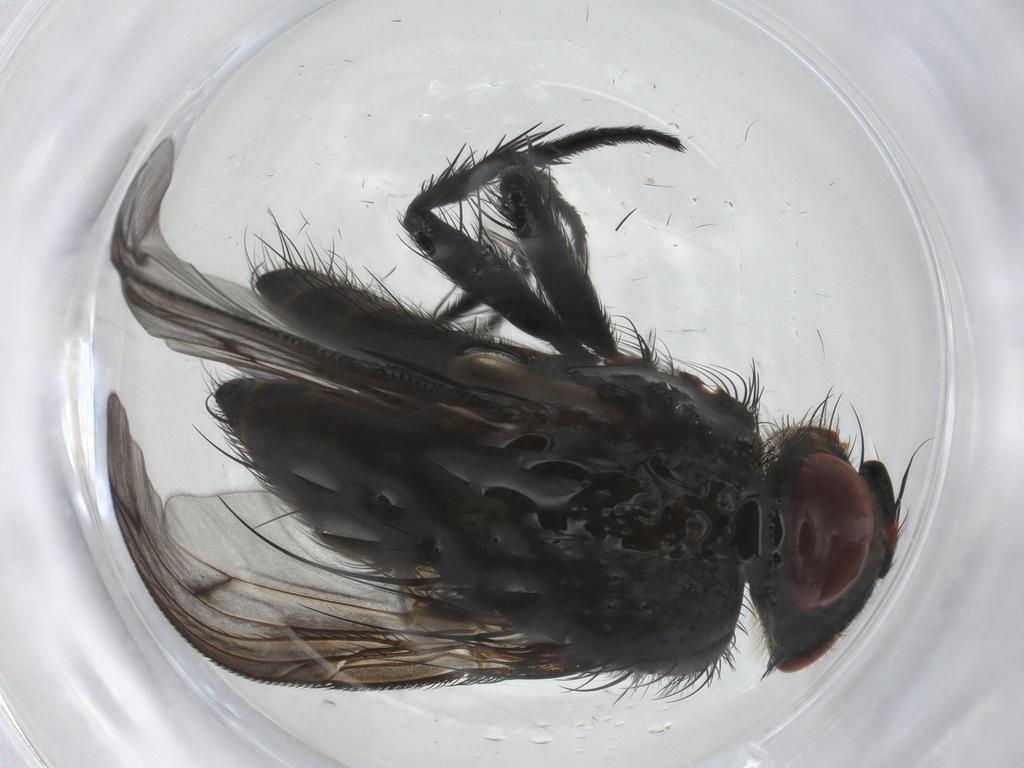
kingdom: Animalia
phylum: Arthropoda
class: Insecta
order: Diptera
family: Tachinidae
